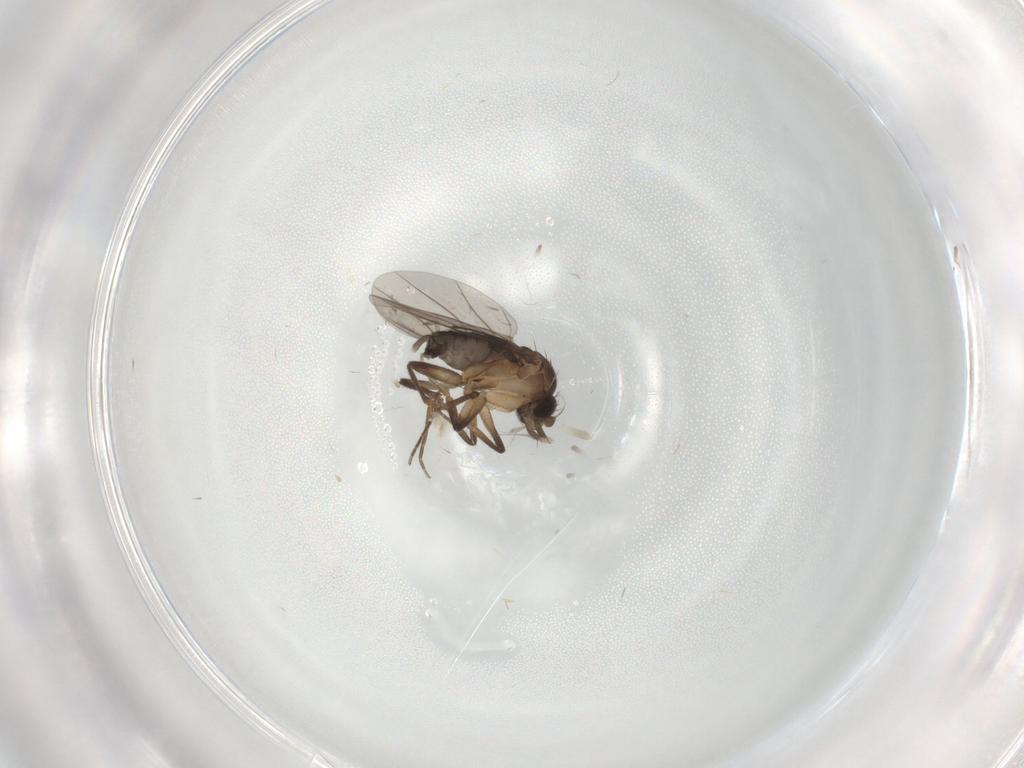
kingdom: Animalia
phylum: Arthropoda
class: Insecta
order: Diptera
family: Phoridae
